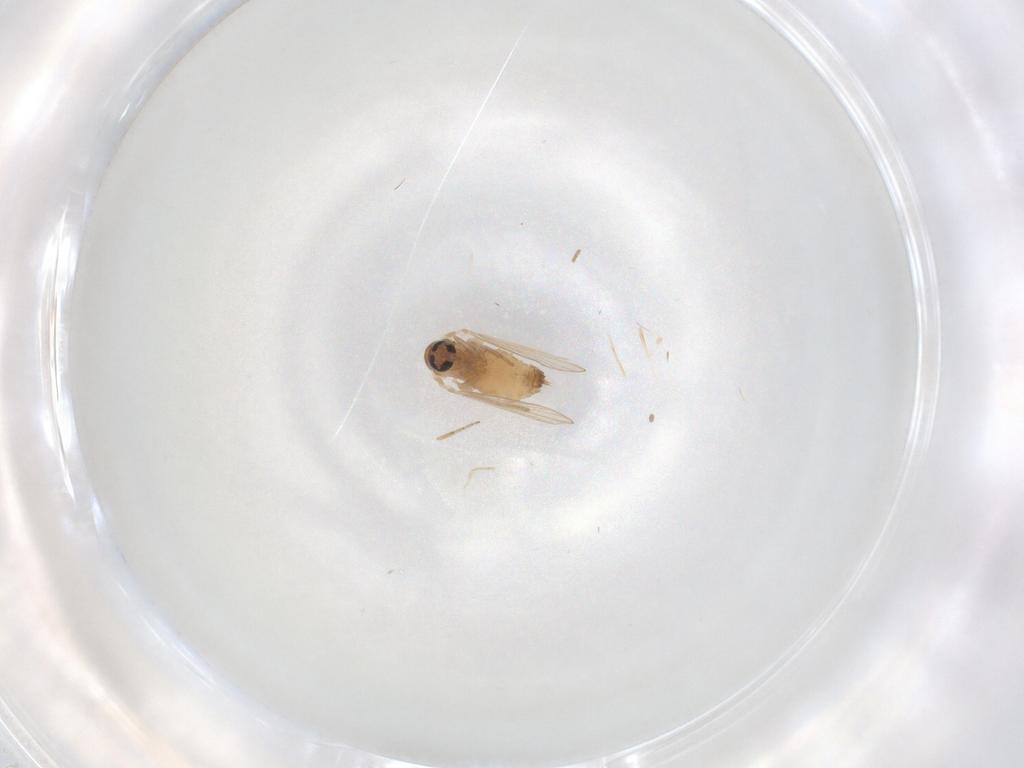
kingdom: Animalia
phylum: Arthropoda
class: Insecta
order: Diptera
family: Psychodidae
